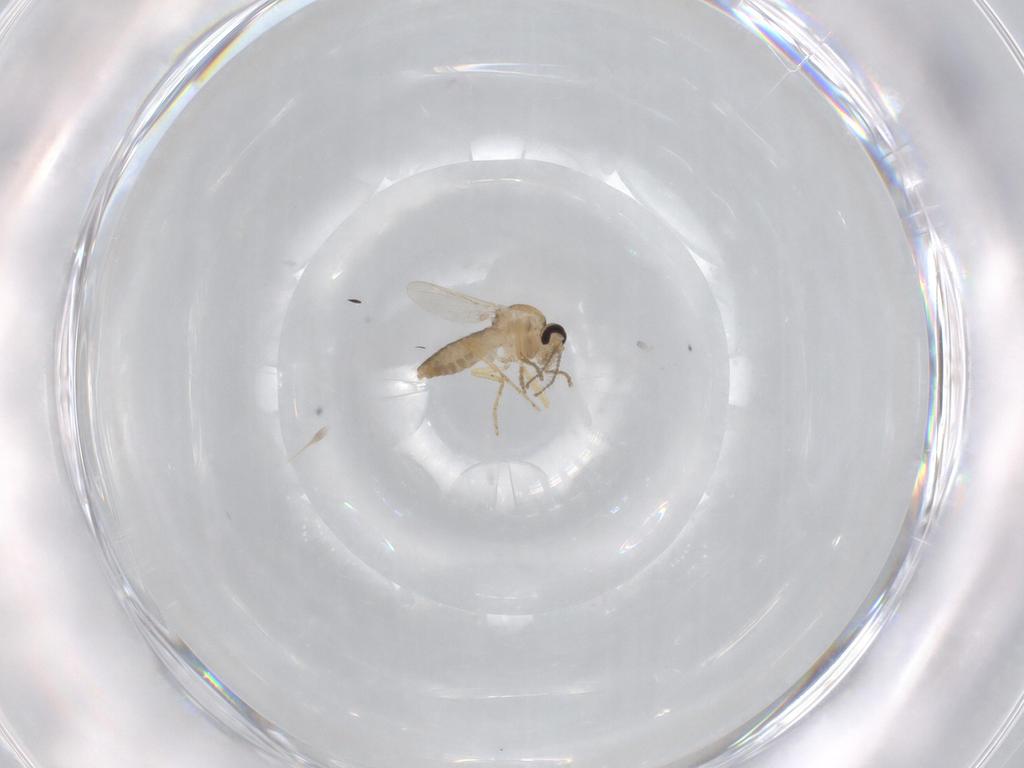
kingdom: Animalia
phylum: Arthropoda
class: Insecta
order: Diptera
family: Ceratopogonidae
